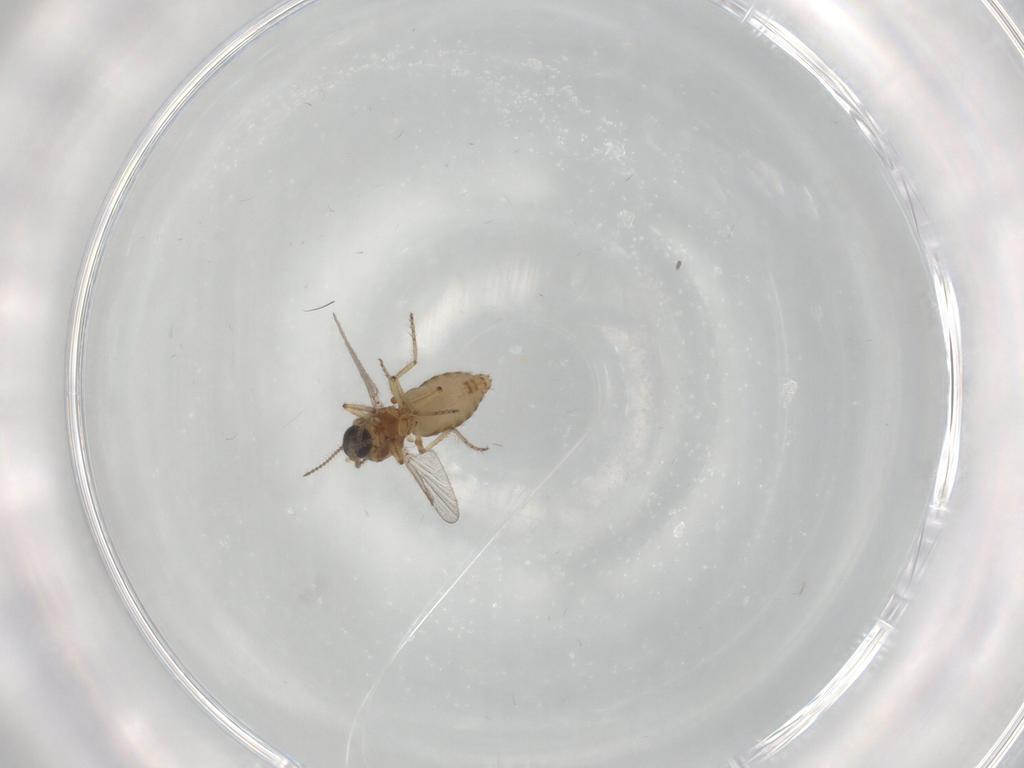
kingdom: Animalia
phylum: Arthropoda
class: Insecta
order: Diptera
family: Ceratopogonidae
